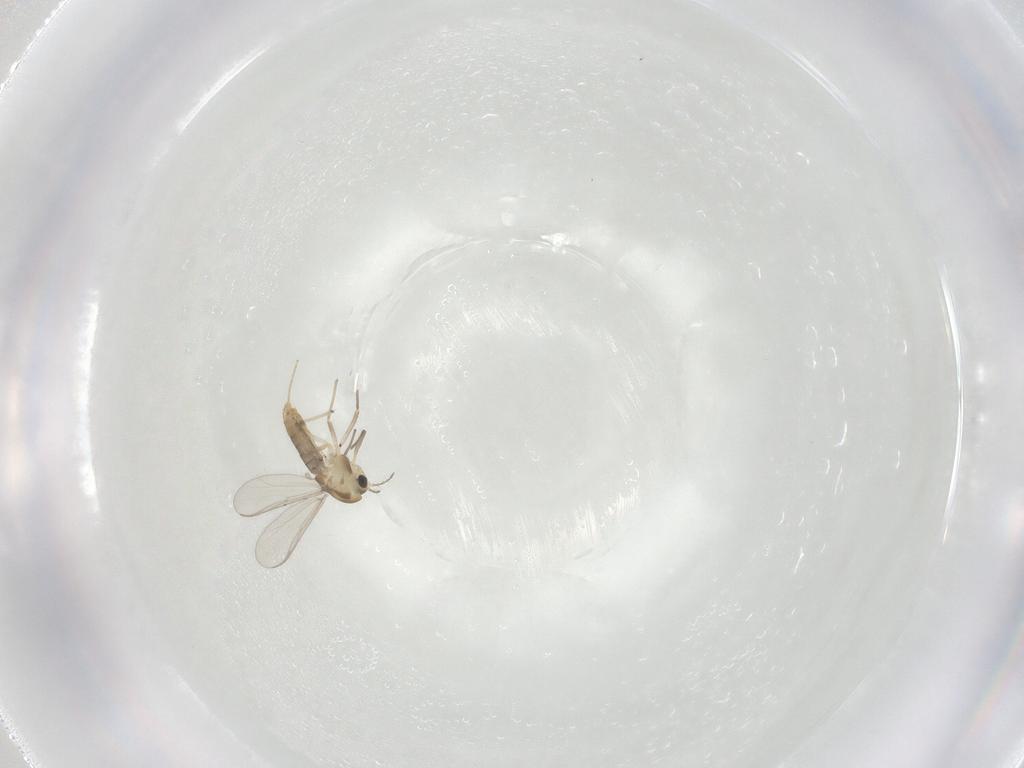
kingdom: Animalia
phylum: Arthropoda
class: Insecta
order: Diptera
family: Chironomidae
